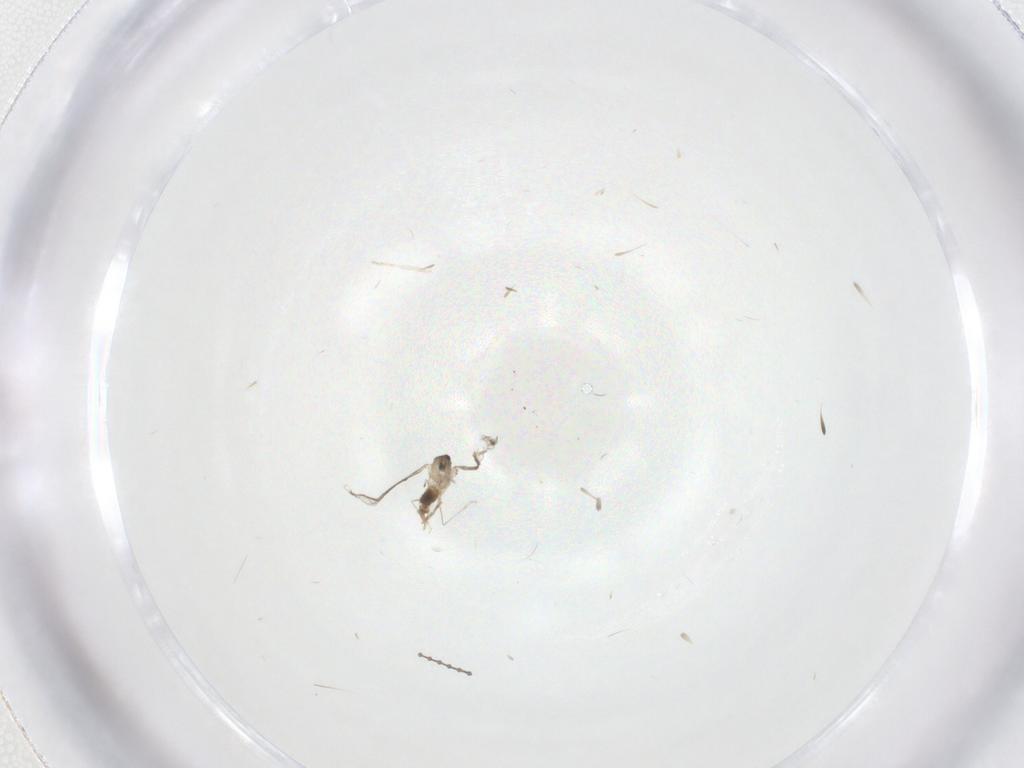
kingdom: Animalia
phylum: Arthropoda
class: Insecta
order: Diptera
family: Cecidomyiidae
